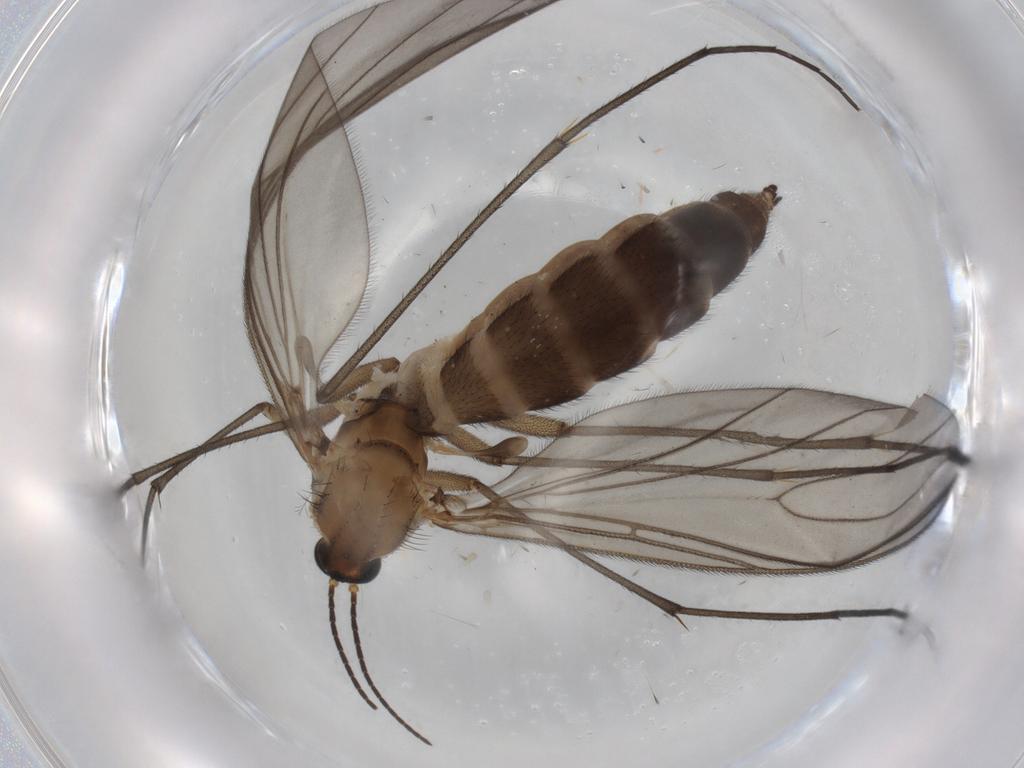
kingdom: Animalia
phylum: Arthropoda
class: Insecta
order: Diptera
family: Sciaridae
